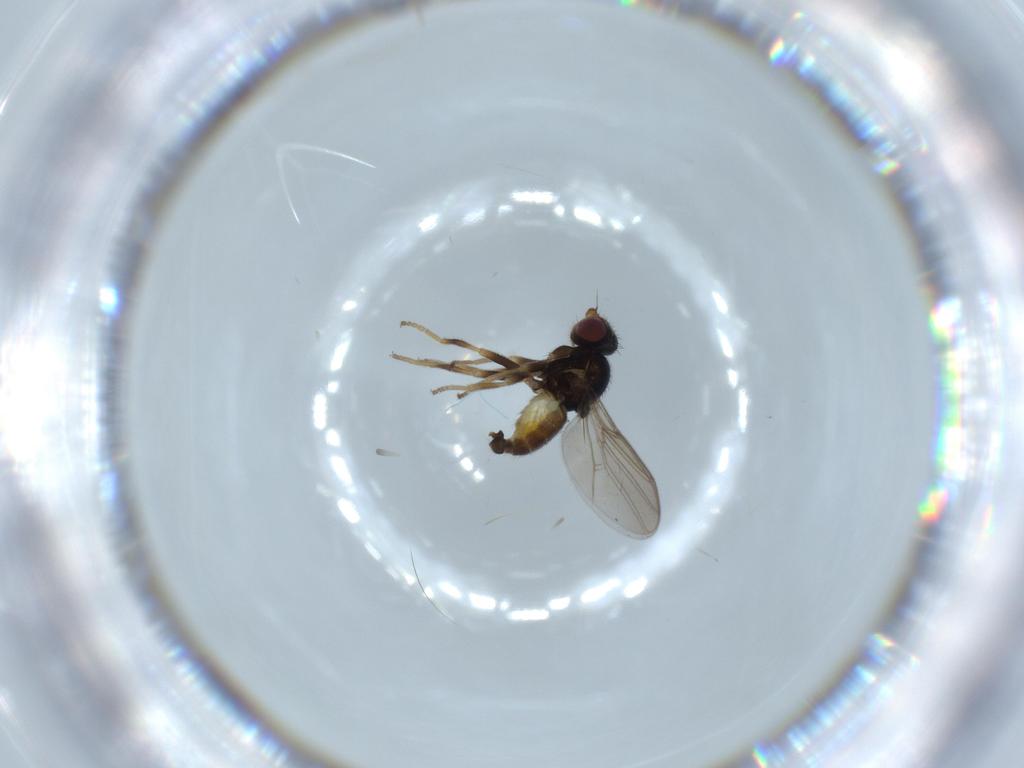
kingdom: Animalia
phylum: Arthropoda
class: Insecta
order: Diptera
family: Chloropidae
